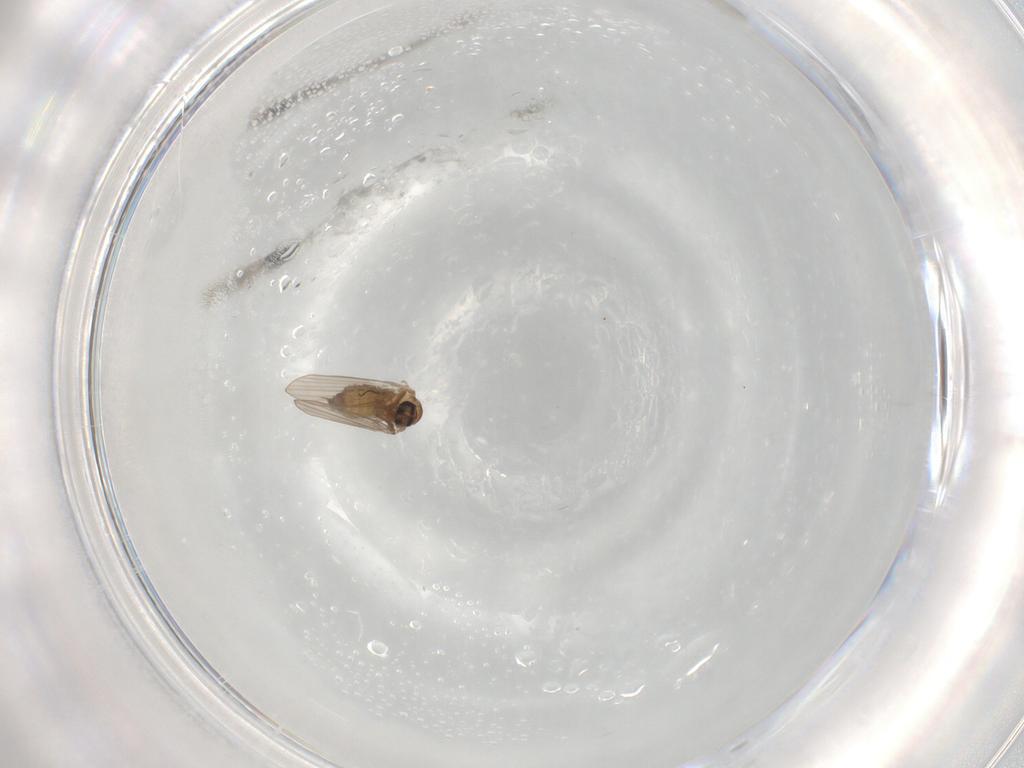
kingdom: Animalia
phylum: Arthropoda
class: Insecta
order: Diptera
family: Psychodidae
